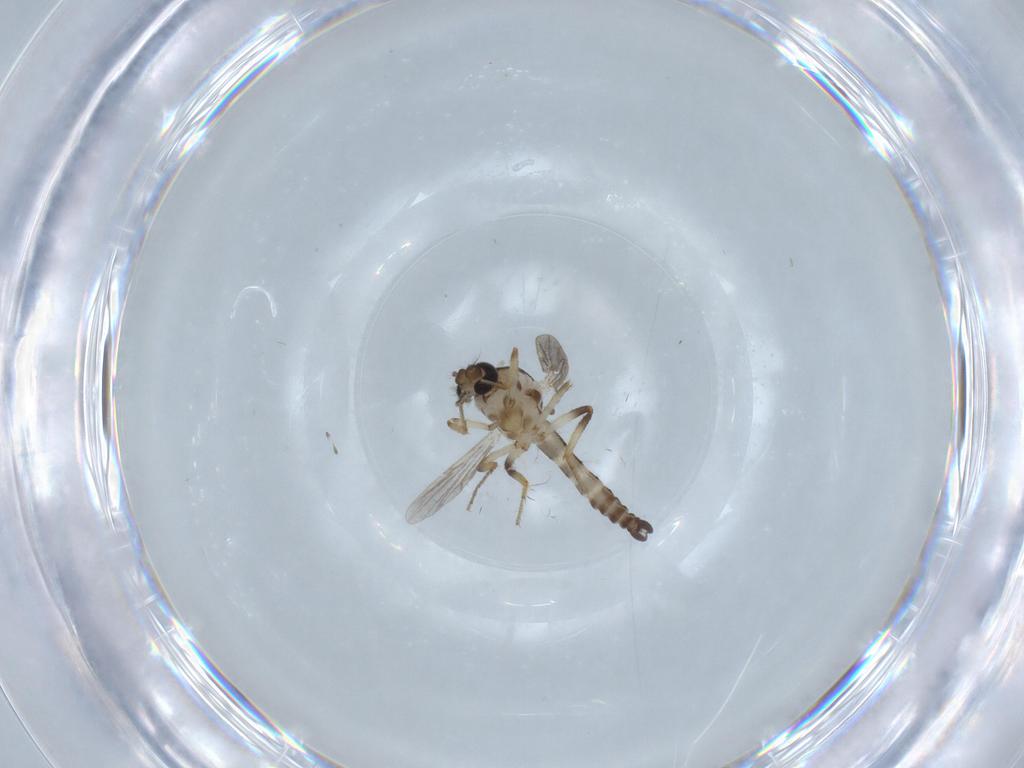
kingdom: Animalia
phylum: Arthropoda
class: Insecta
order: Diptera
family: Ceratopogonidae
